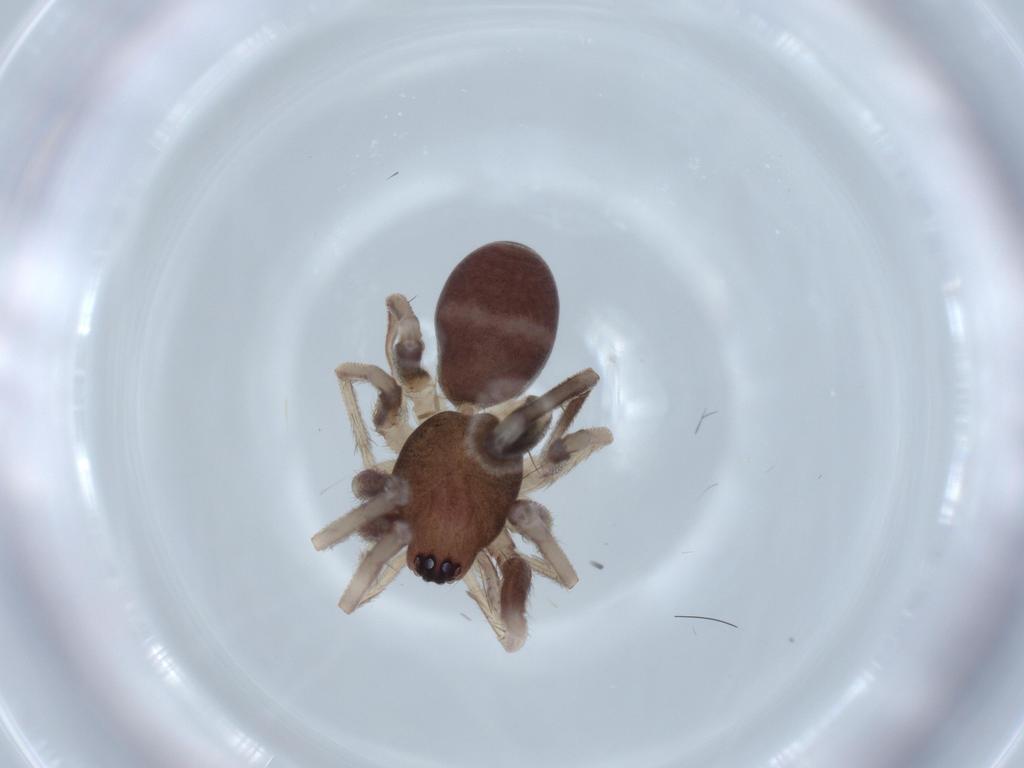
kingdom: Animalia
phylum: Arthropoda
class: Arachnida
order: Araneae
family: Corinnidae
